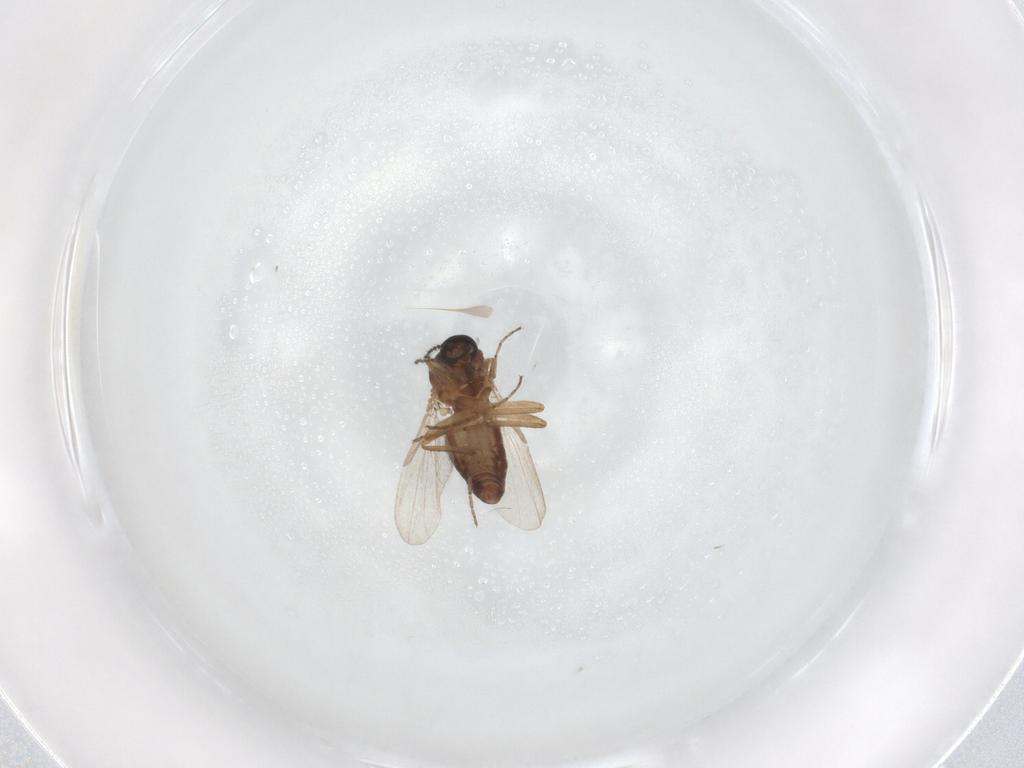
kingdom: Animalia
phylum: Arthropoda
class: Insecta
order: Diptera
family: Ceratopogonidae
